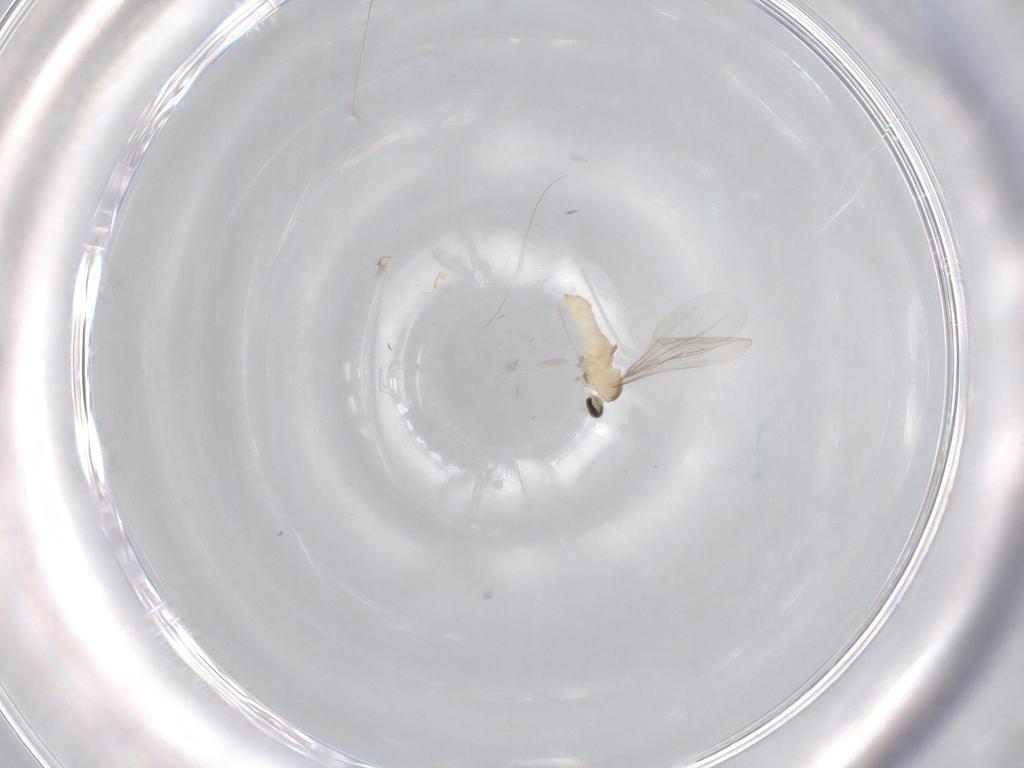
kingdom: Animalia
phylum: Arthropoda
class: Insecta
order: Diptera
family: Cecidomyiidae
